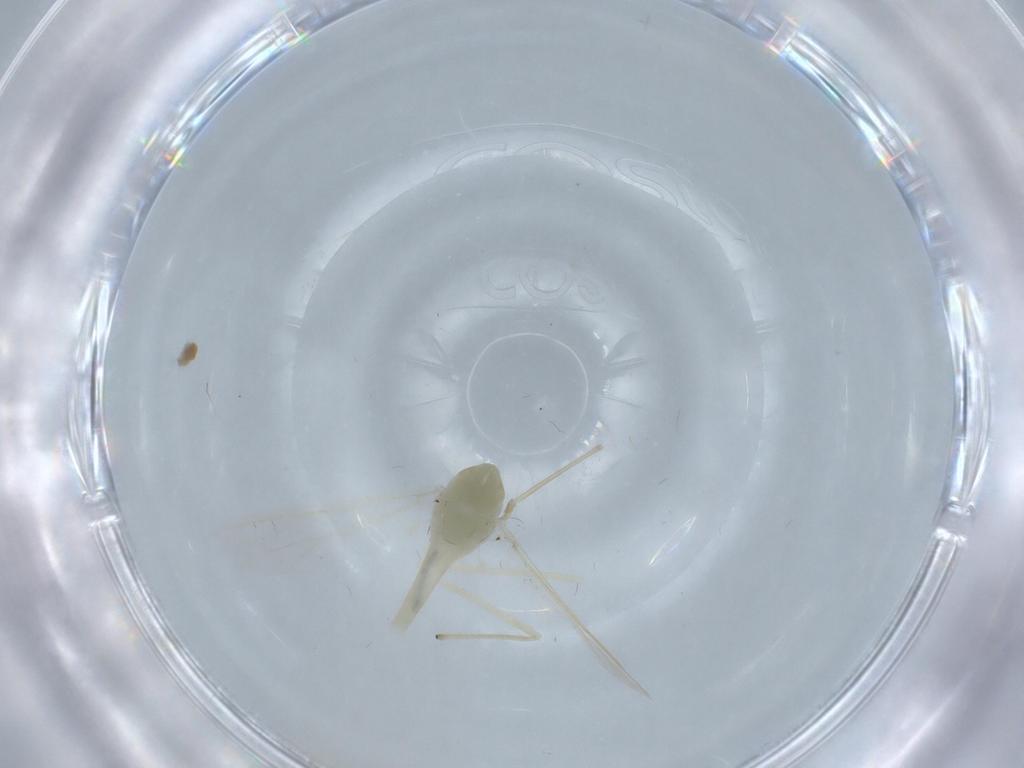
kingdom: Animalia
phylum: Arthropoda
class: Insecta
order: Diptera
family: Chironomidae
